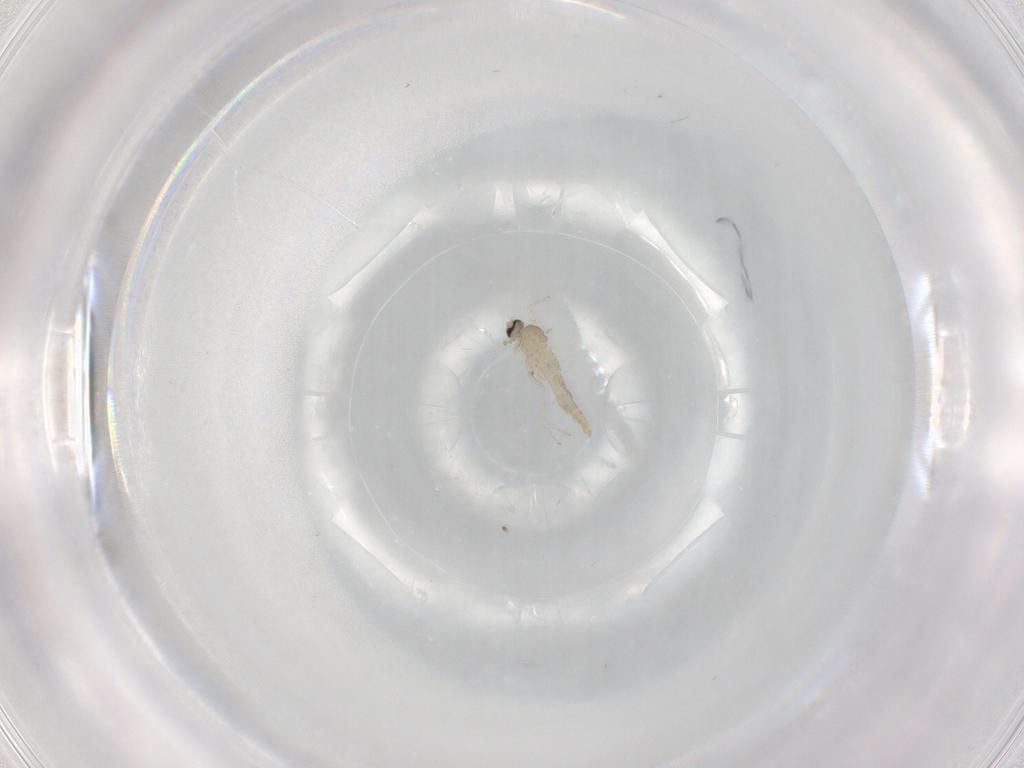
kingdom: Animalia
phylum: Arthropoda
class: Insecta
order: Diptera
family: Cecidomyiidae
